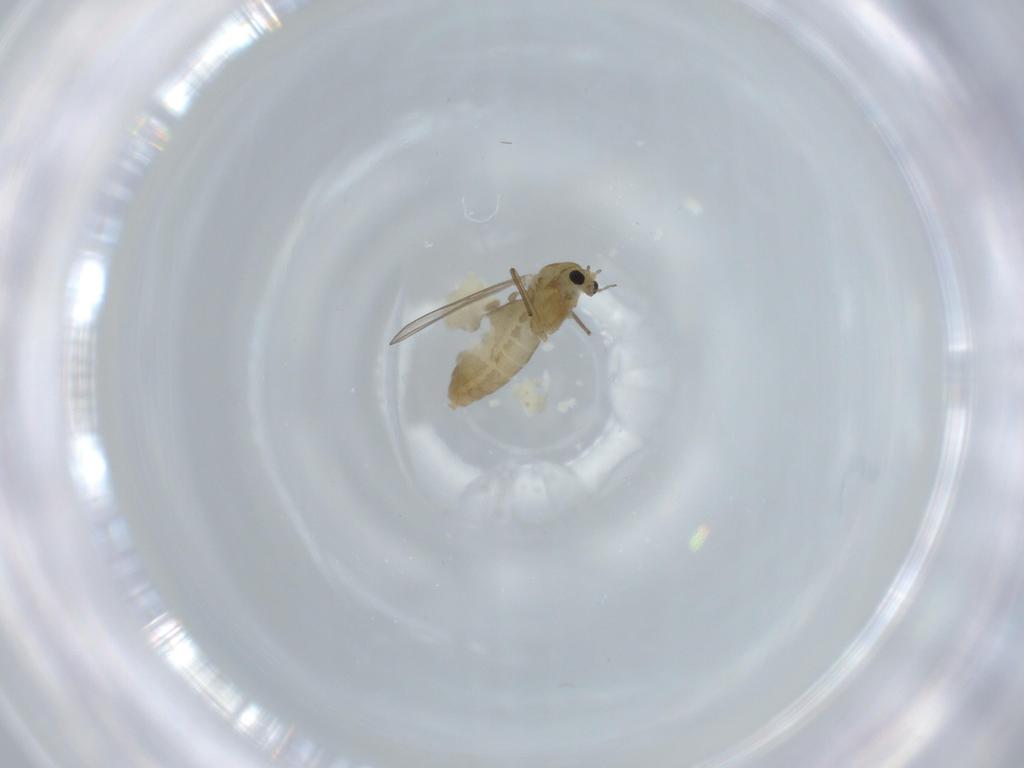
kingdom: Animalia
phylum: Arthropoda
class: Insecta
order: Diptera
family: Chironomidae
